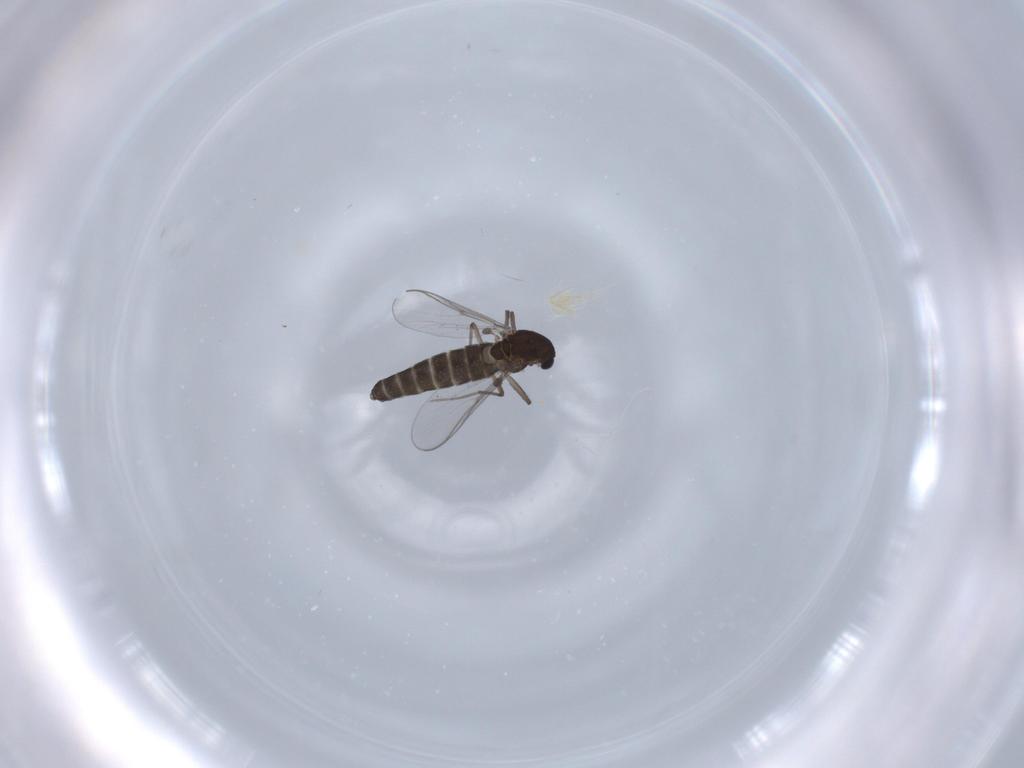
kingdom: Animalia
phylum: Arthropoda
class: Insecta
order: Diptera
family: Chironomidae
